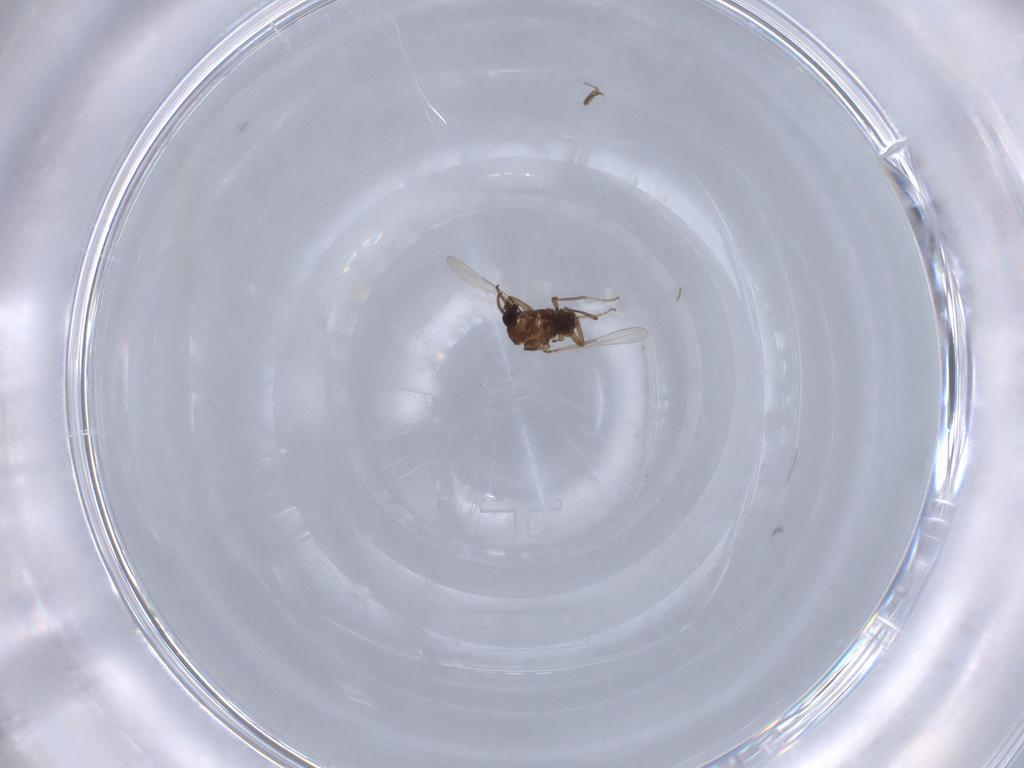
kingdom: Animalia
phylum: Arthropoda
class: Insecta
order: Diptera
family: Ceratopogonidae
